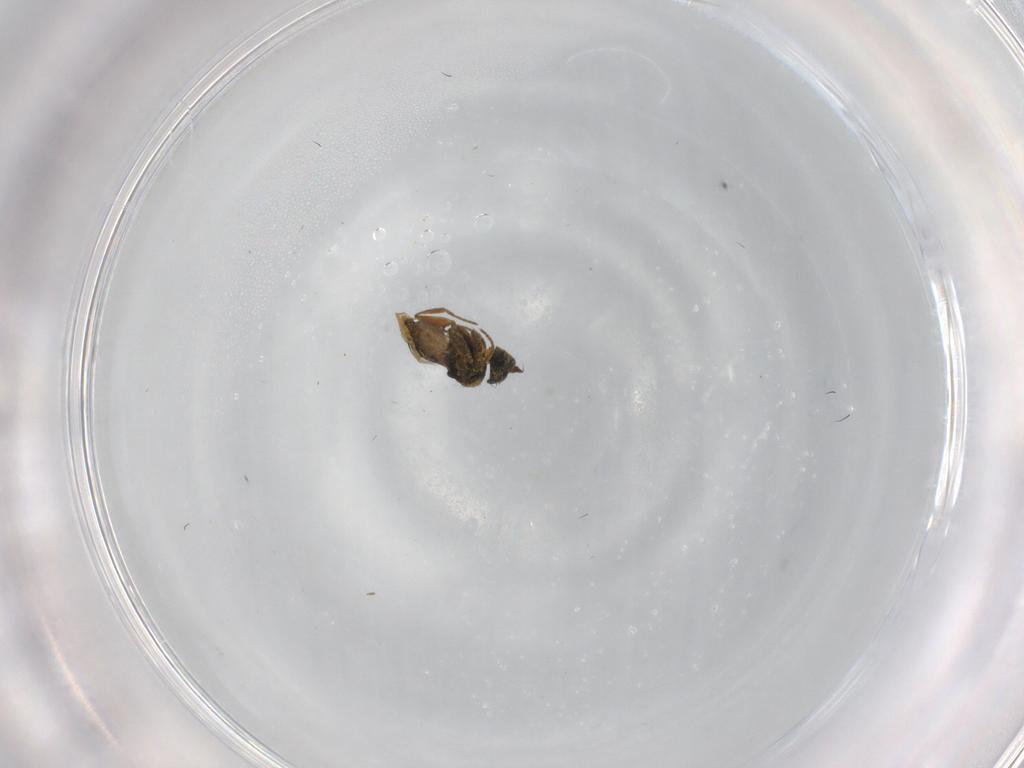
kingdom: Animalia
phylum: Arthropoda
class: Insecta
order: Diptera
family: Cecidomyiidae
